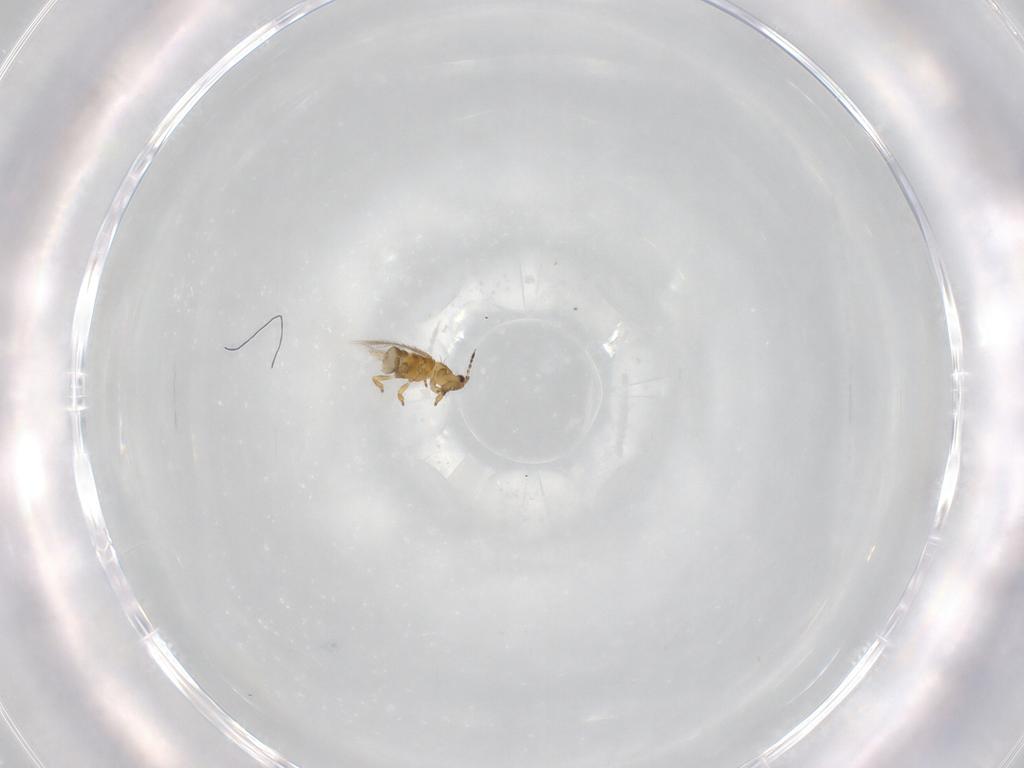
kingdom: Animalia
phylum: Arthropoda
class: Insecta
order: Thysanoptera
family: Thripidae
